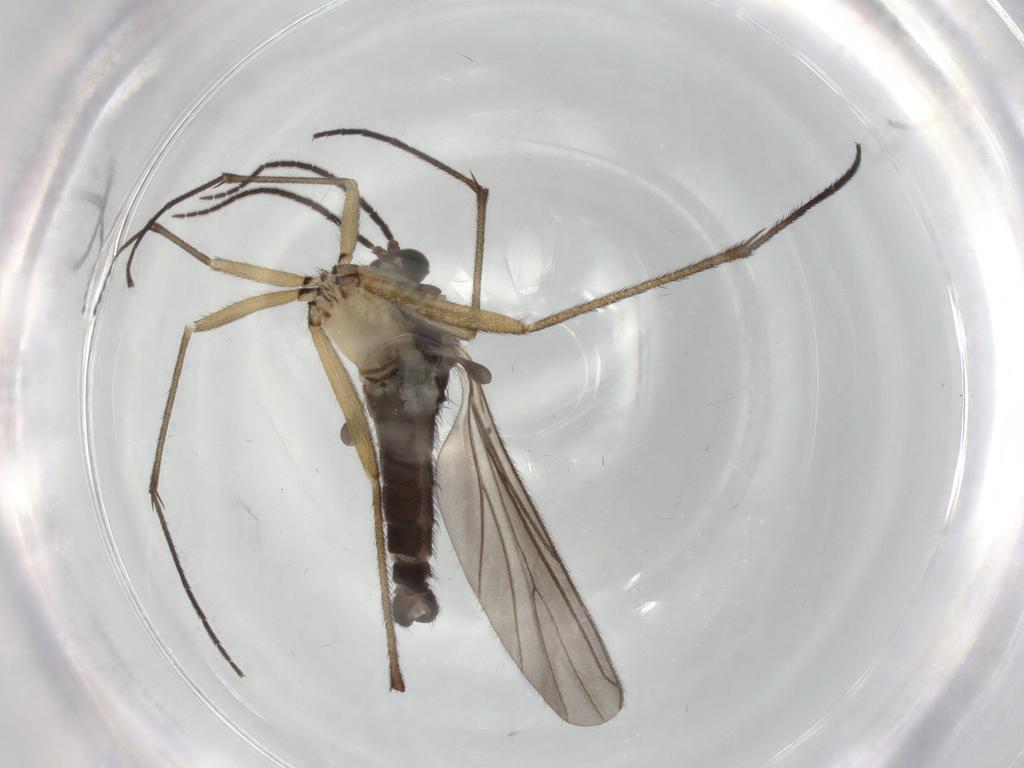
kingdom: Animalia
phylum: Arthropoda
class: Insecta
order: Diptera
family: Sciaridae
